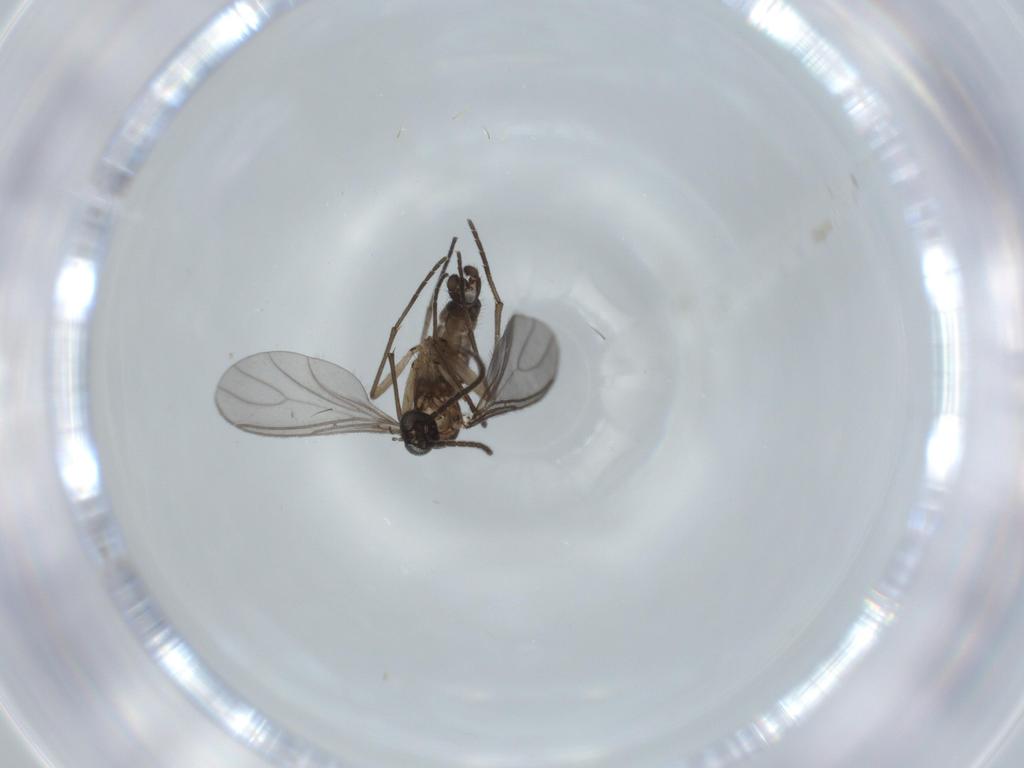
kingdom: Animalia
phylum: Arthropoda
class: Insecta
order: Diptera
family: Sciaridae
